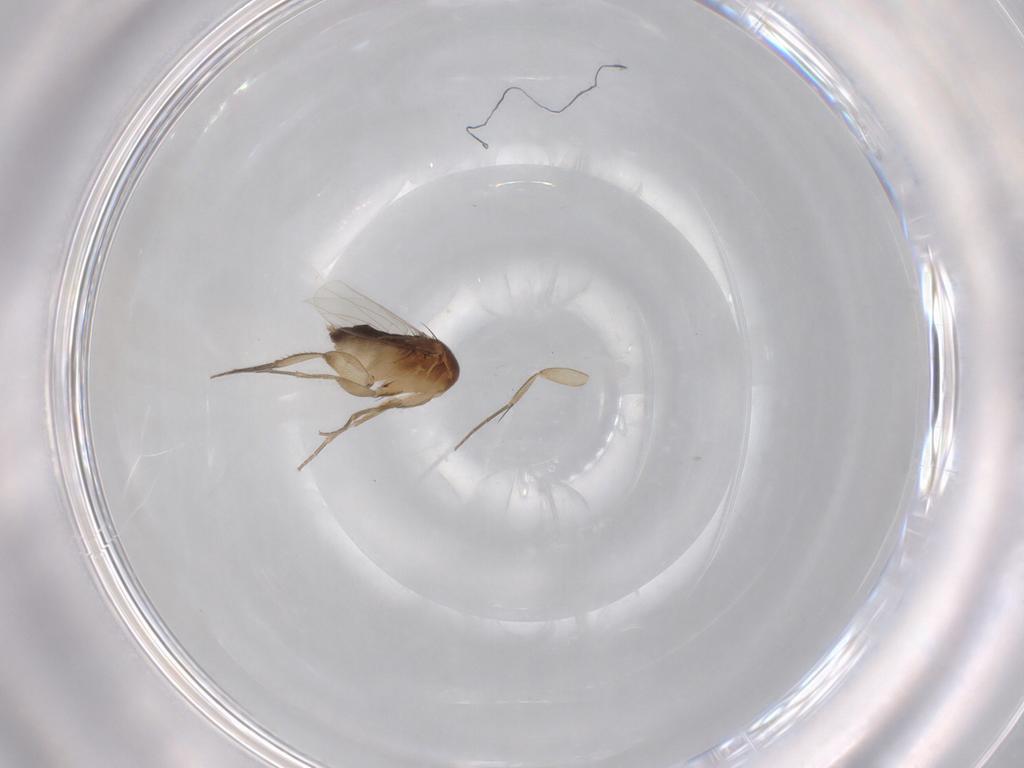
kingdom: Animalia
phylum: Arthropoda
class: Insecta
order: Diptera
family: Phoridae
